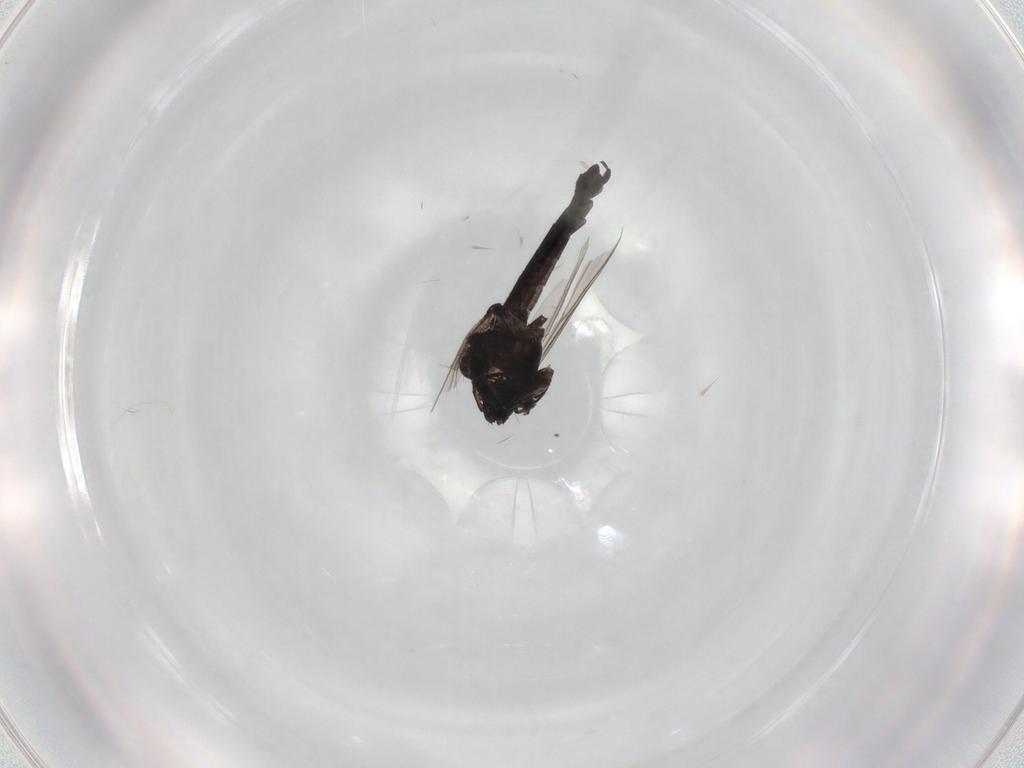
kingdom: Animalia
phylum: Arthropoda
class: Insecta
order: Diptera
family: Chironomidae
